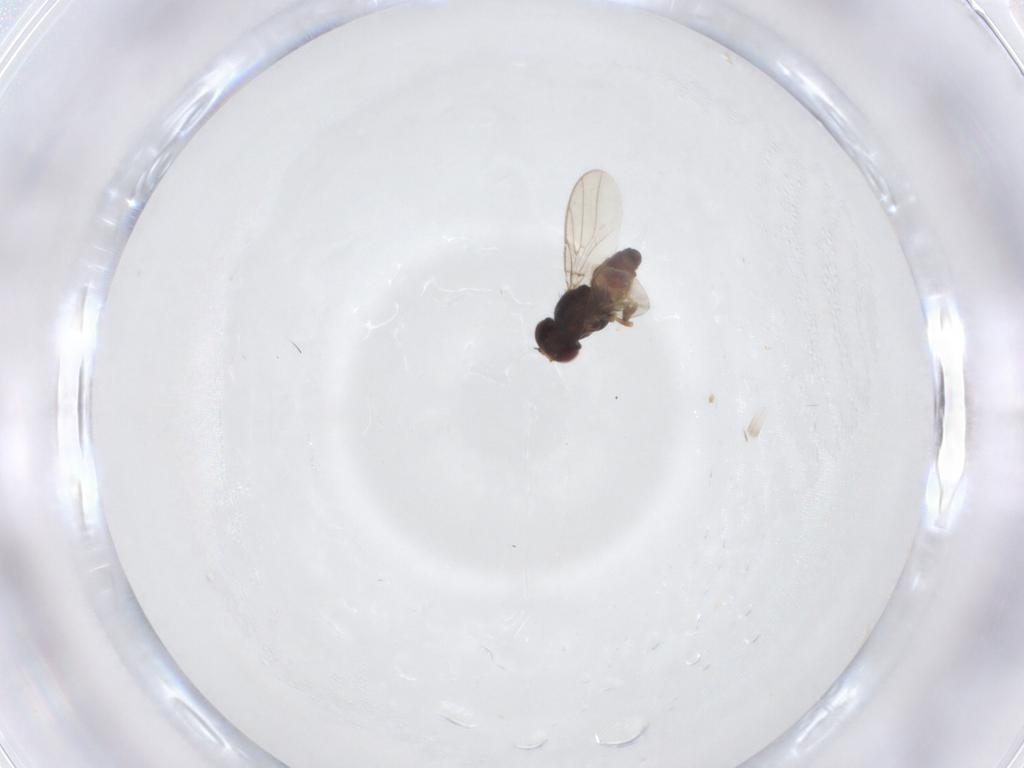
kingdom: Animalia
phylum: Arthropoda
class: Insecta
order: Diptera
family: Chloropidae
